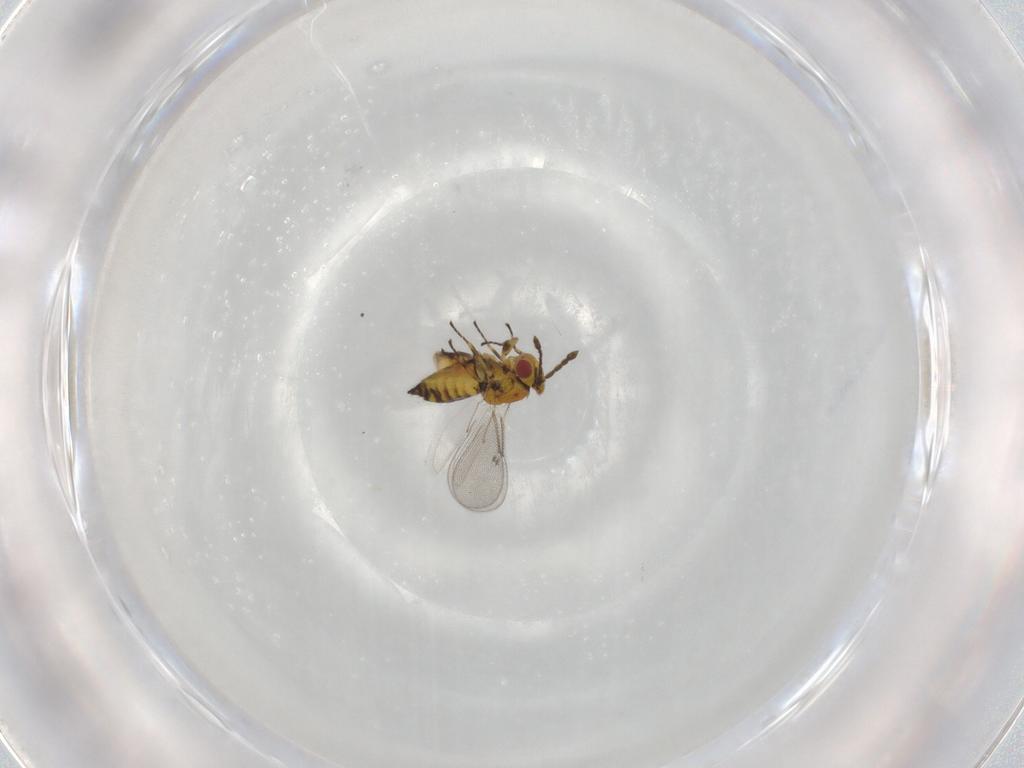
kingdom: Animalia
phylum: Arthropoda
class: Insecta
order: Hymenoptera
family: Eulophidae
